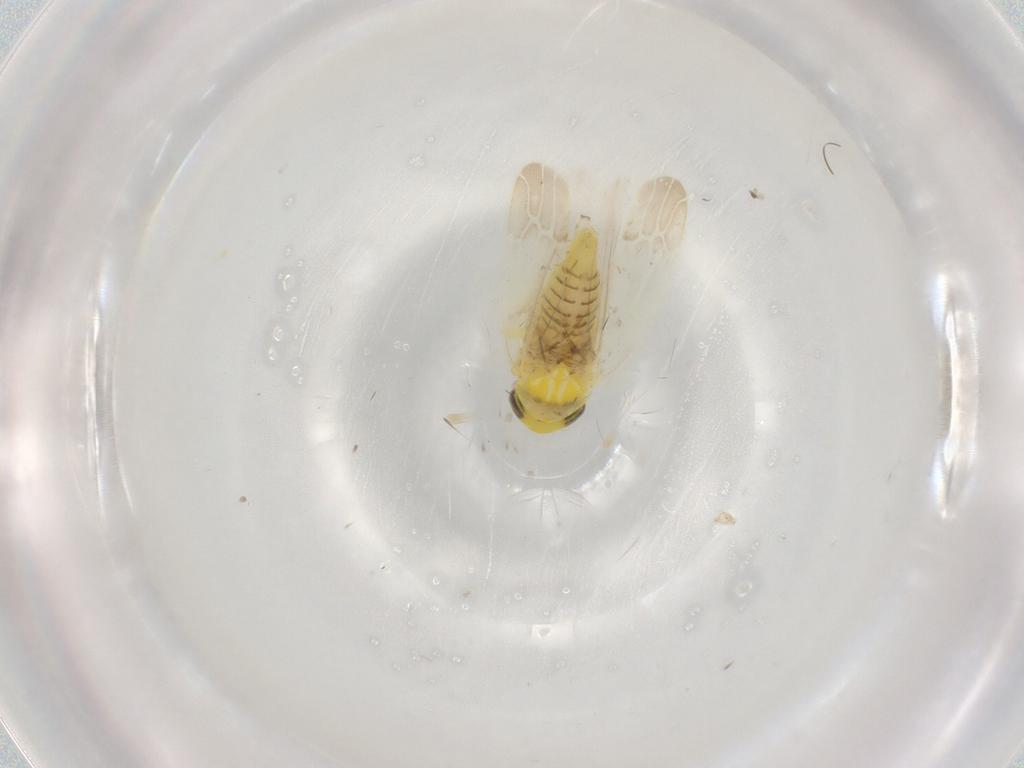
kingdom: Animalia
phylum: Arthropoda
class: Insecta
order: Hemiptera
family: Cicadellidae
